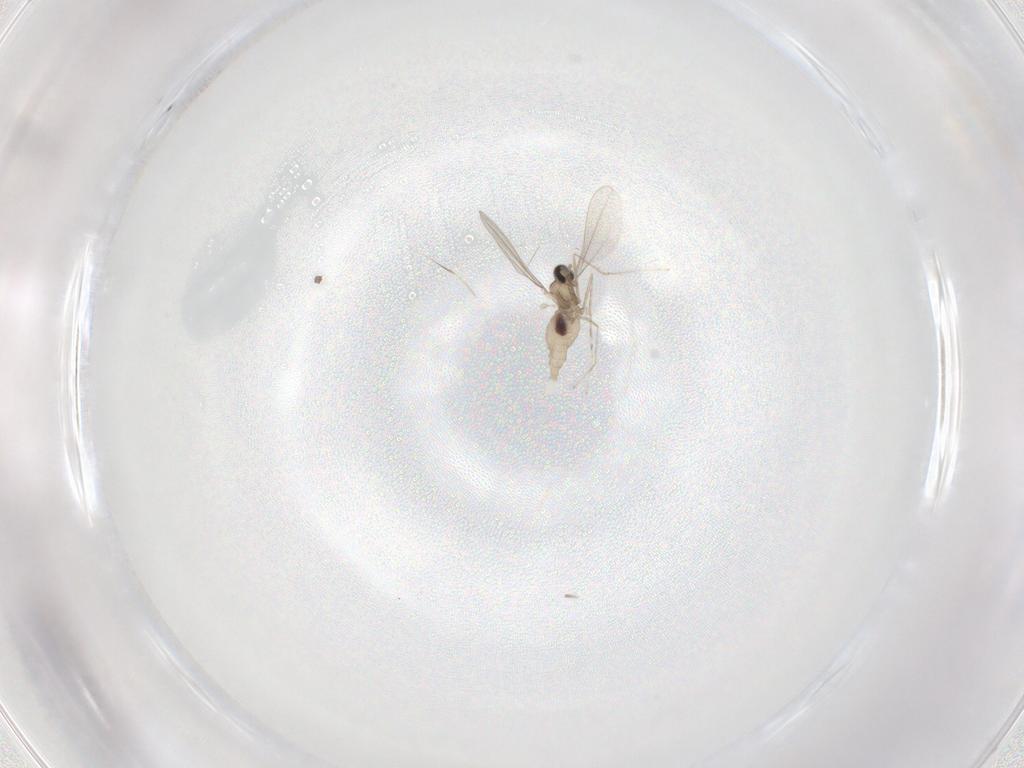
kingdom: Animalia
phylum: Arthropoda
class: Insecta
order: Diptera
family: Cecidomyiidae
